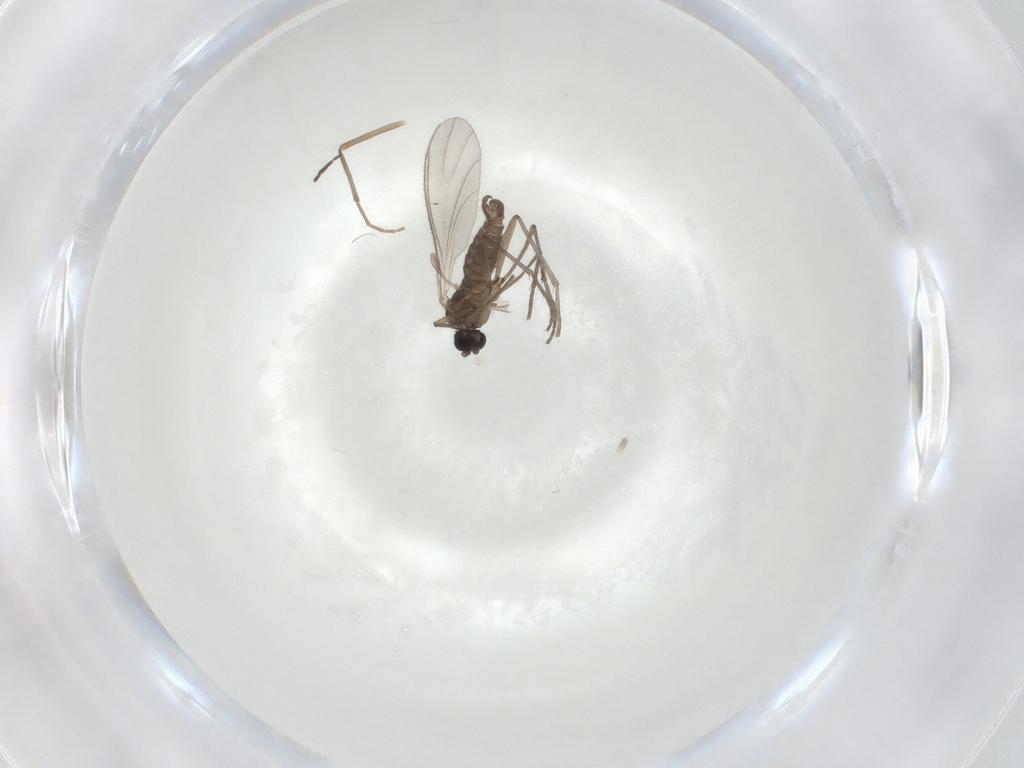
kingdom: Animalia
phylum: Arthropoda
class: Insecta
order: Diptera
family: Sciaridae
